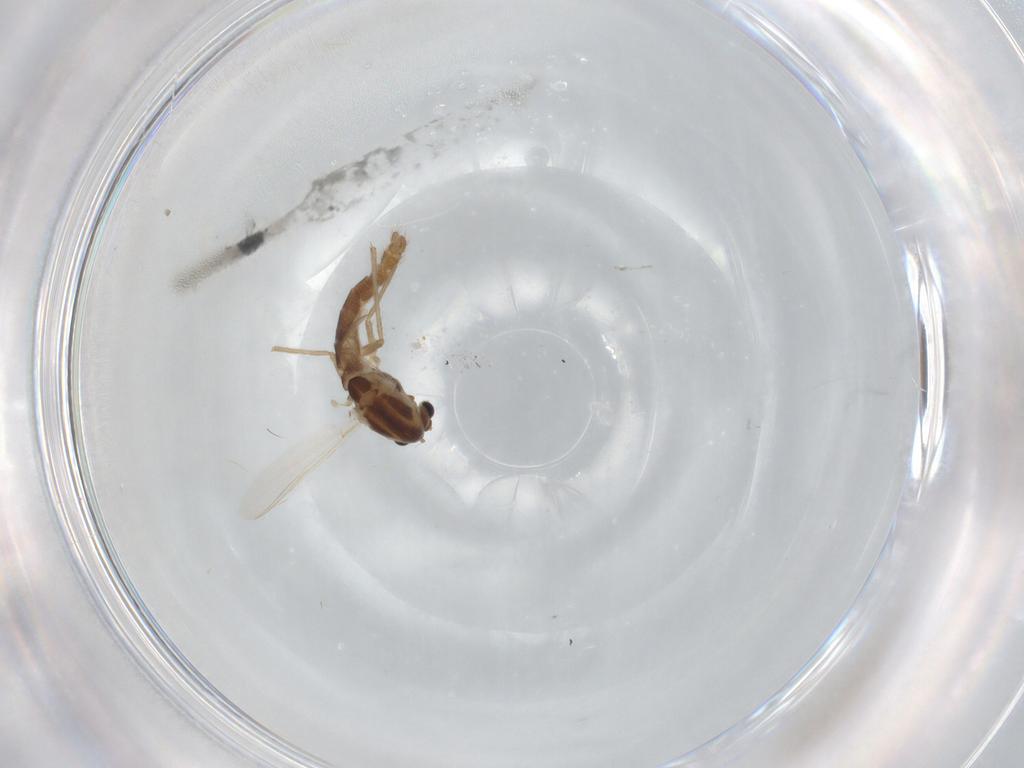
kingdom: Animalia
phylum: Arthropoda
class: Insecta
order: Diptera
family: Chironomidae
